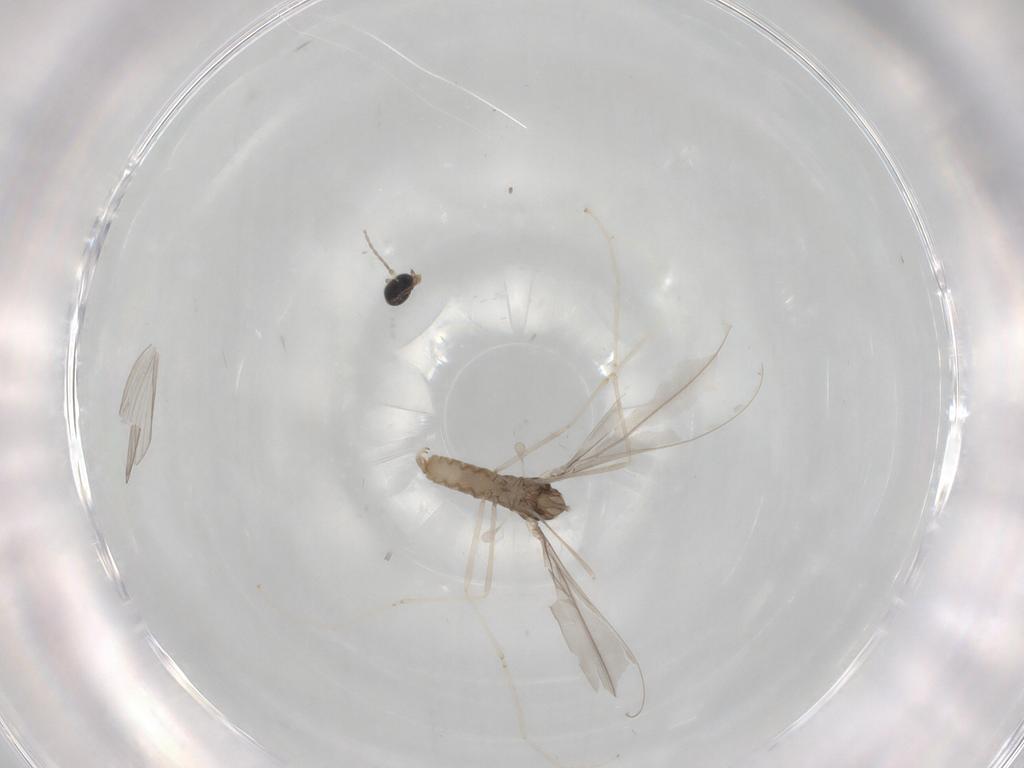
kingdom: Animalia
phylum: Arthropoda
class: Insecta
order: Diptera
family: Cecidomyiidae
